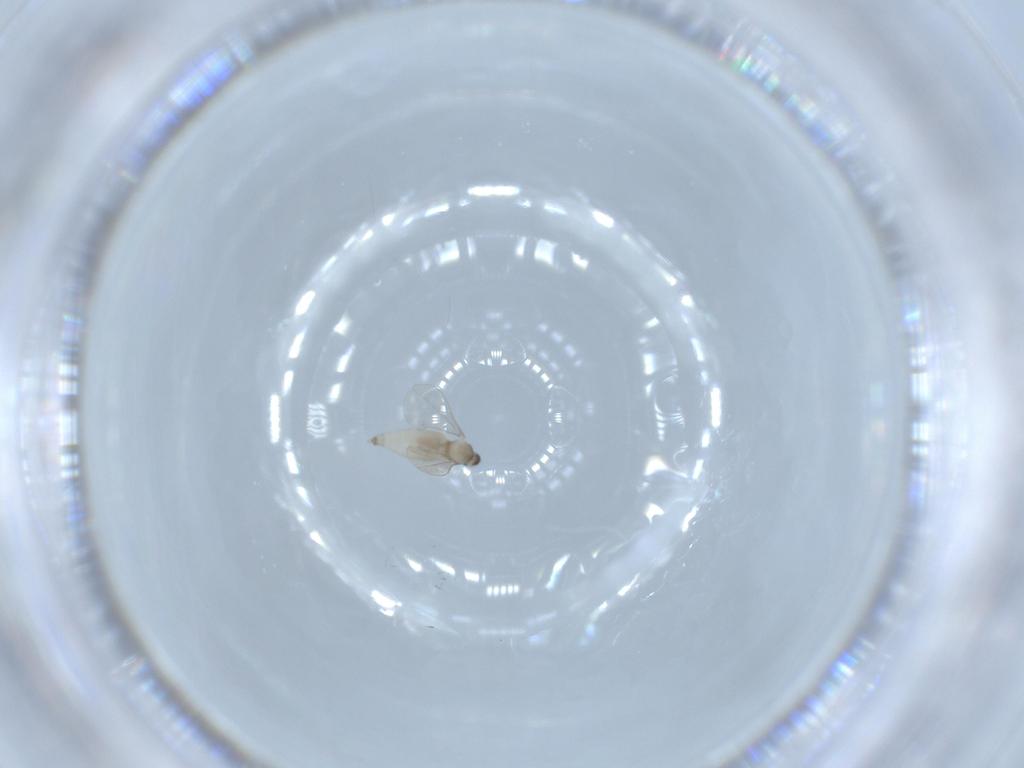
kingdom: Animalia
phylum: Arthropoda
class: Insecta
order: Diptera
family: Cecidomyiidae
